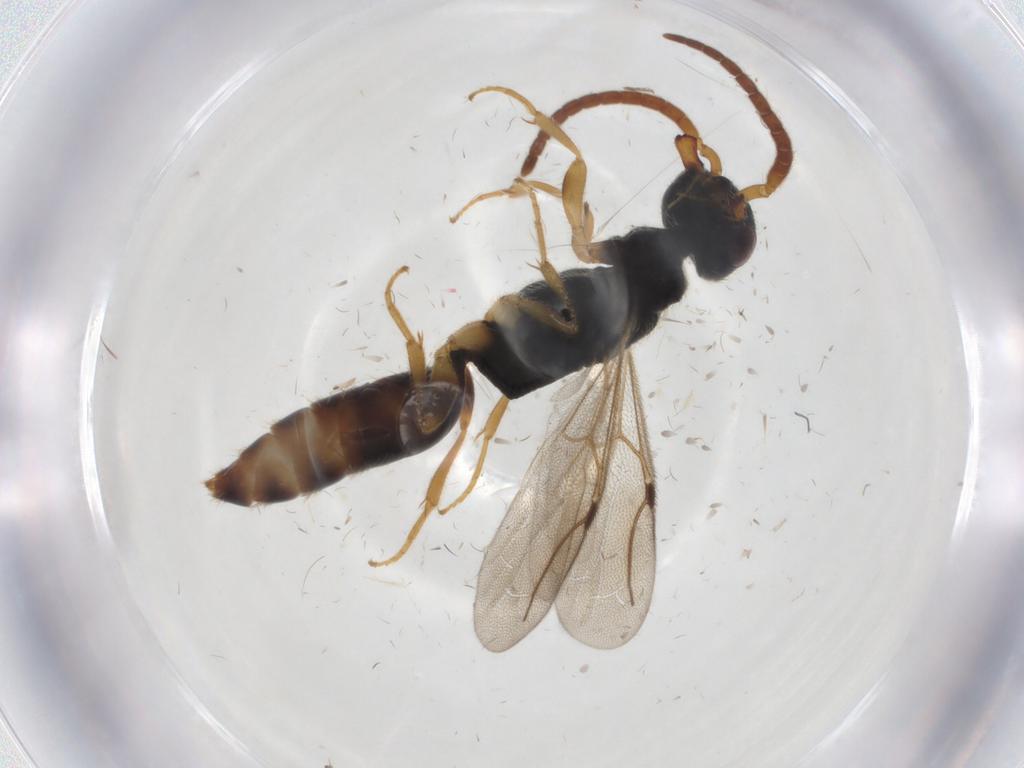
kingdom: Animalia
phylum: Arthropoda
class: Insecta
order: Hymenoptera
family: Bethylidae
